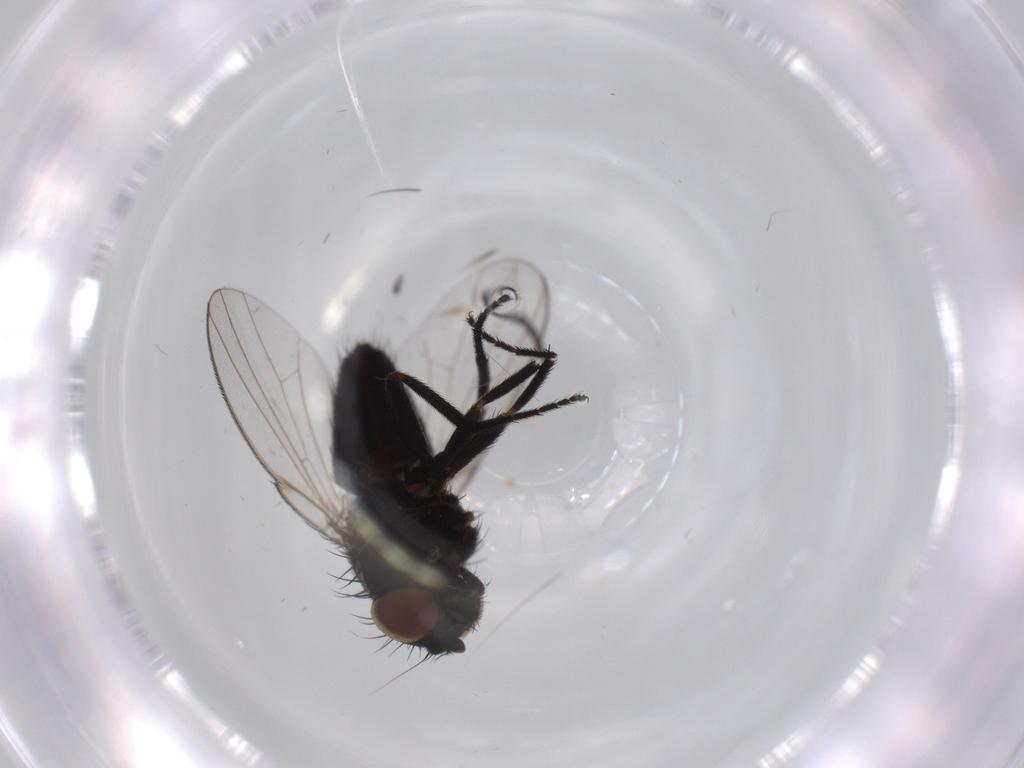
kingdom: Animalia
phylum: Arthropoda
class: Insecta
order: Diptera
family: Milichiidae
